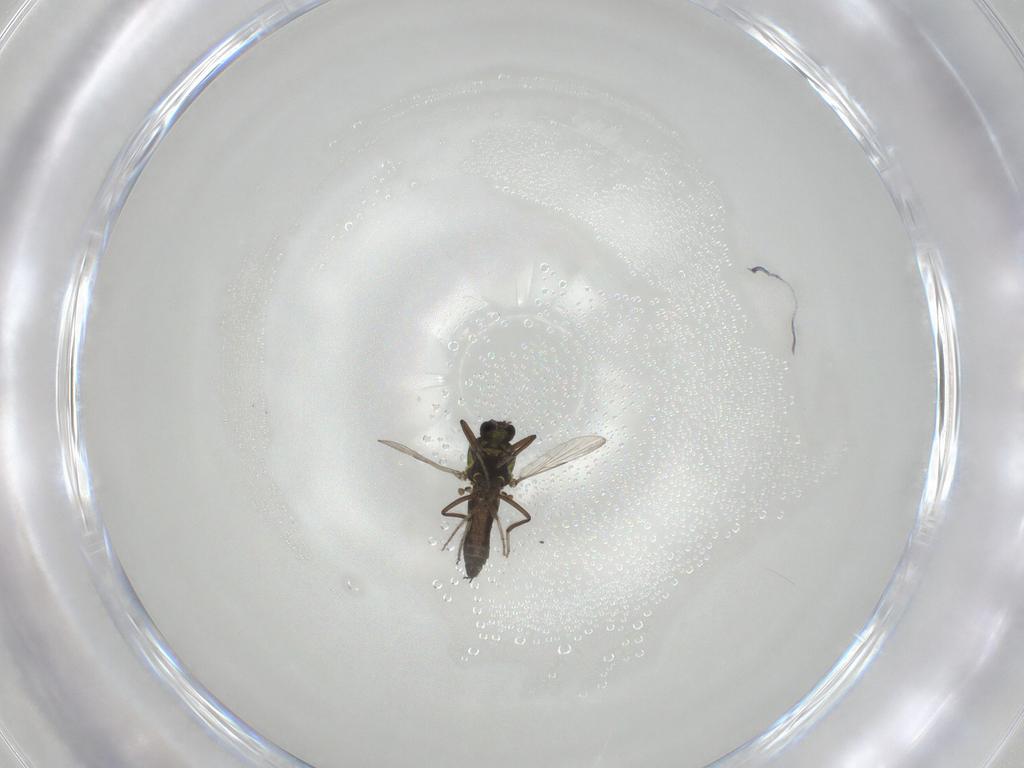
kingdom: Animalia
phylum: Arthropoda
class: Insecta
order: Diptera
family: Ceratopogonidae
